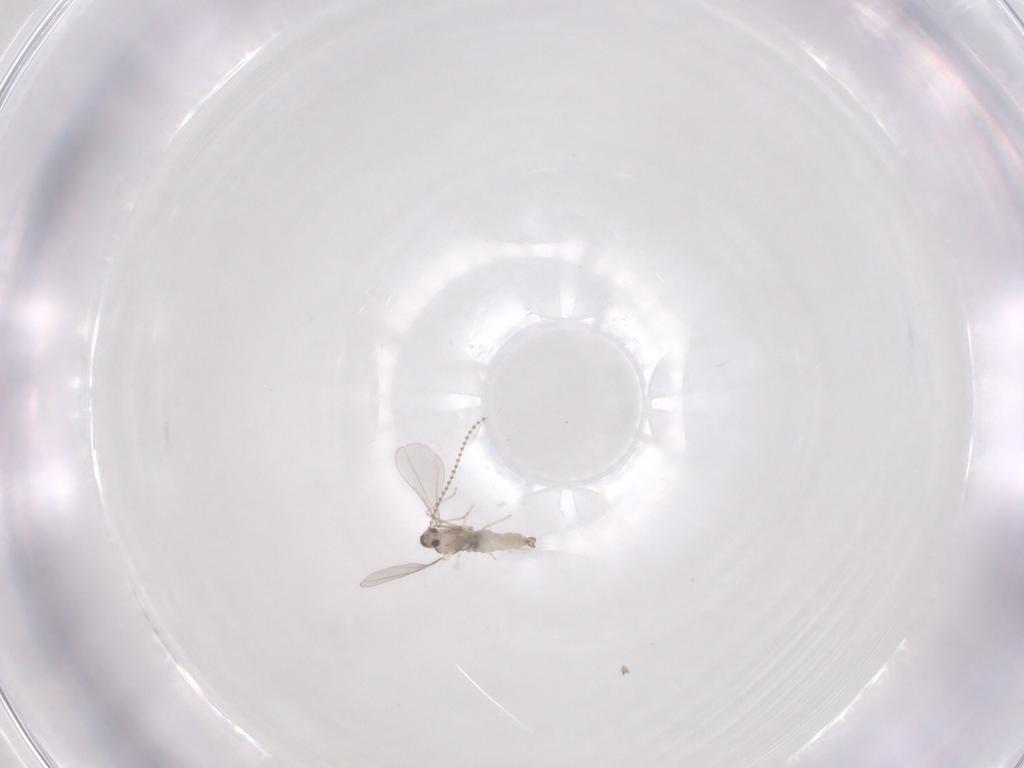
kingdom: Animalia
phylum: Arthropoda
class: Insecta
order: Diptera
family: Cecidomyiidae
